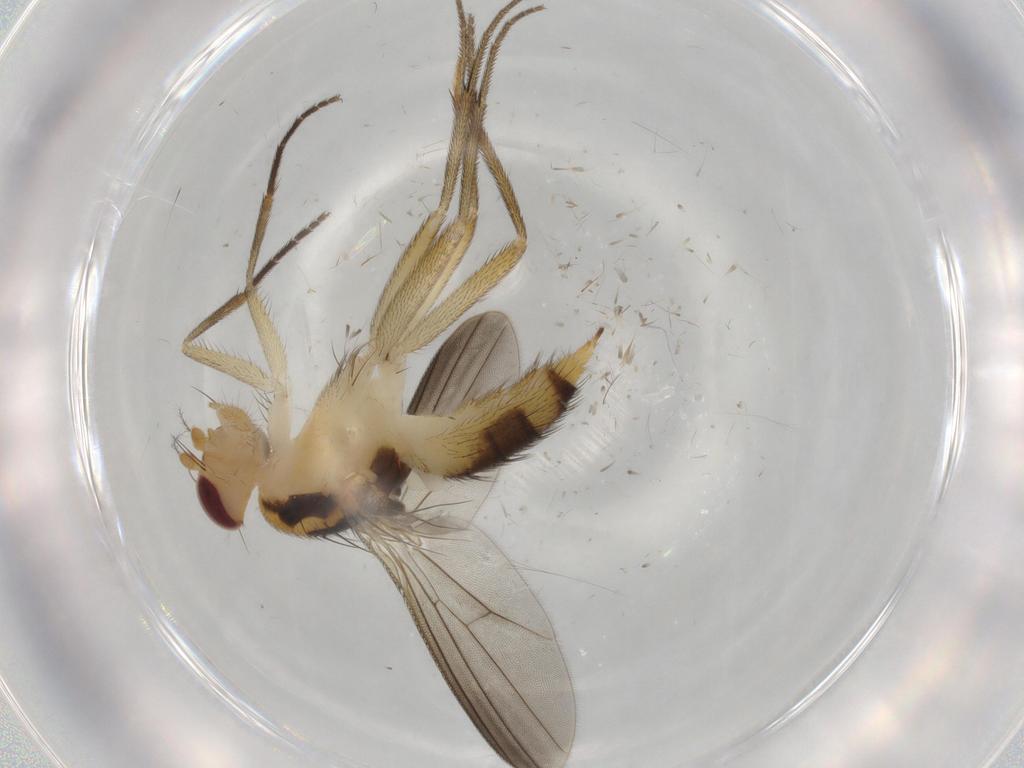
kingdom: Animalia
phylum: Arthropoda
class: Insecta
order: Diptera
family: Clusiidae
